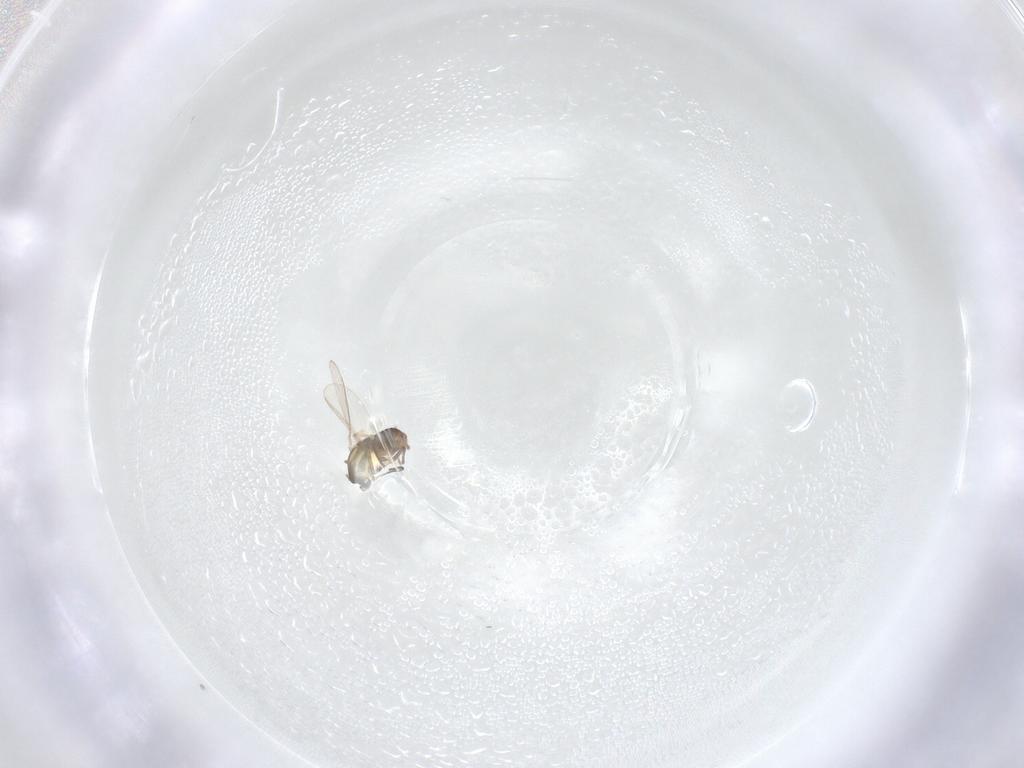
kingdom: Animalia
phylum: Arthropoda
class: Insecta
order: Diptera
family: Chironomidae
